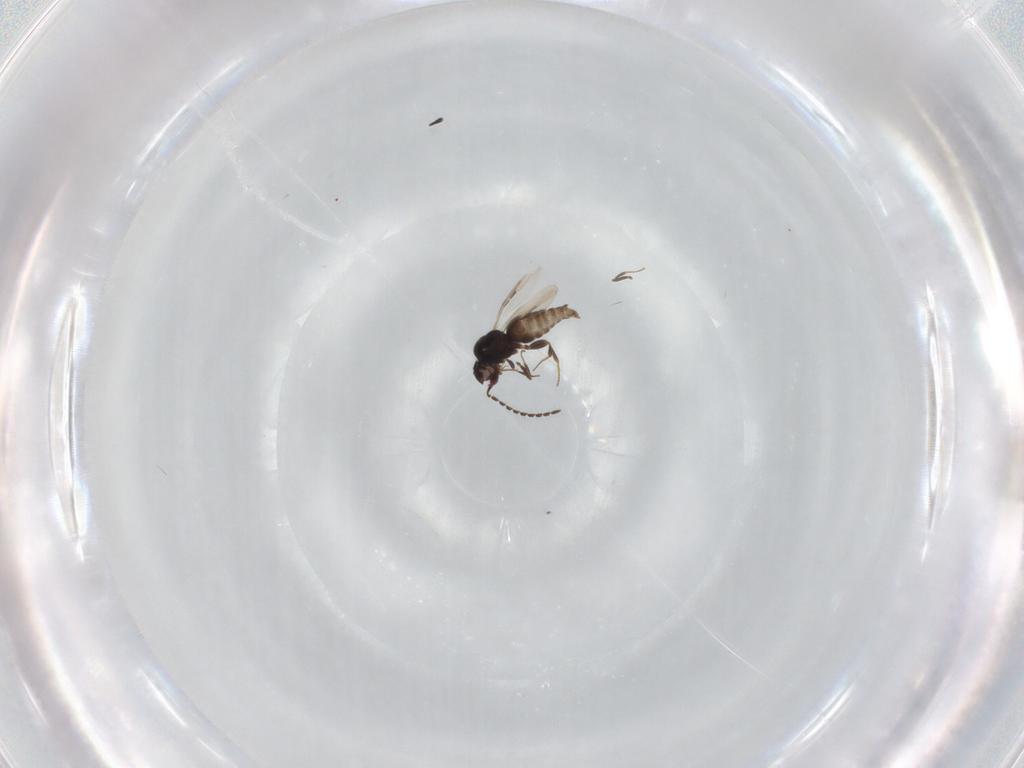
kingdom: Animalia
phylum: Arthropoda
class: Insecta
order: Hymenoptera
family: Ceraphronidae
